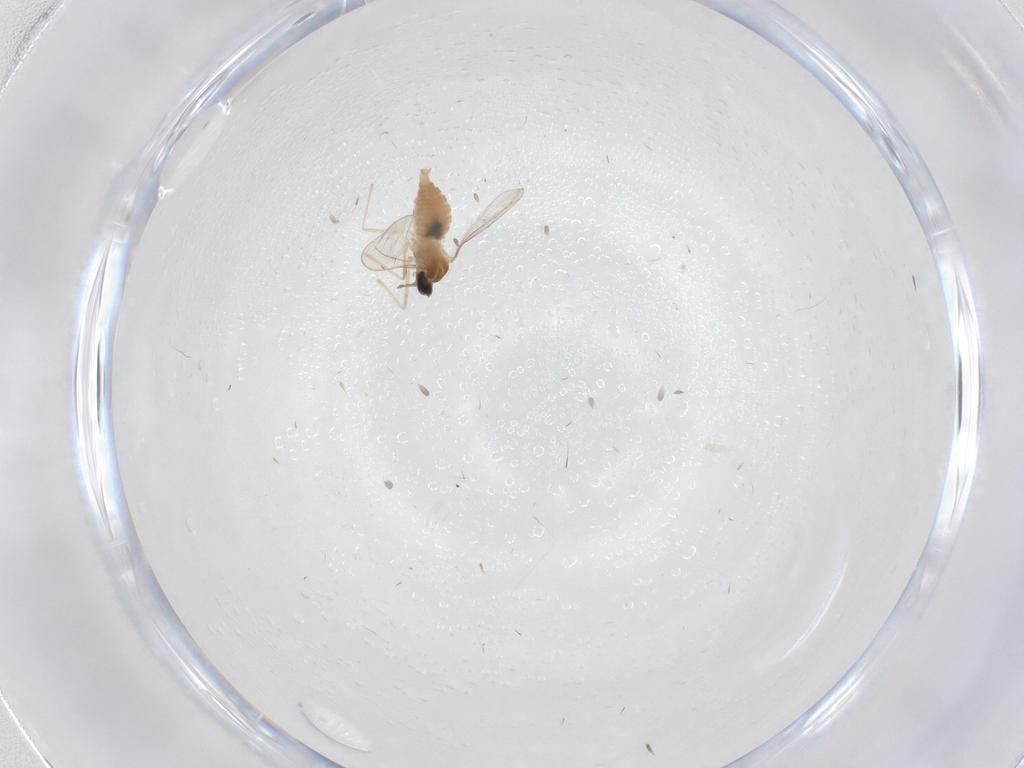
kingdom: Animalia
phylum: Arthropoda
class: Insecta
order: Diptera
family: Cecidomyiidae
